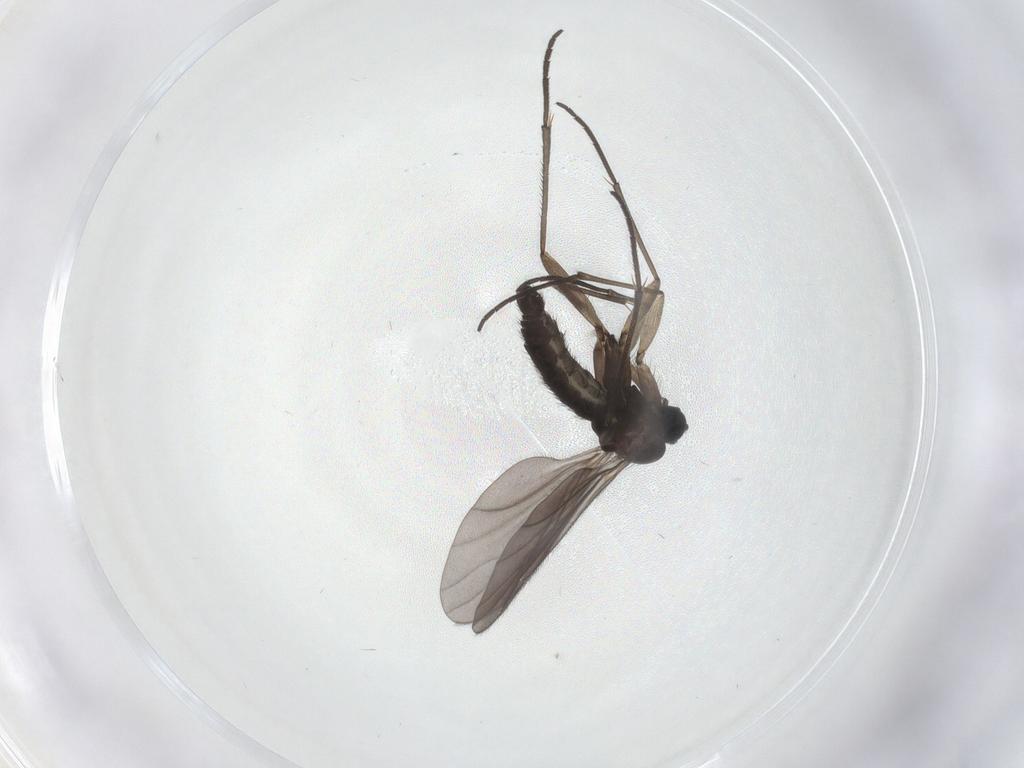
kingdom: Animalia
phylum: Arthropoda
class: Insecta
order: Diptera
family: Sciaridae
